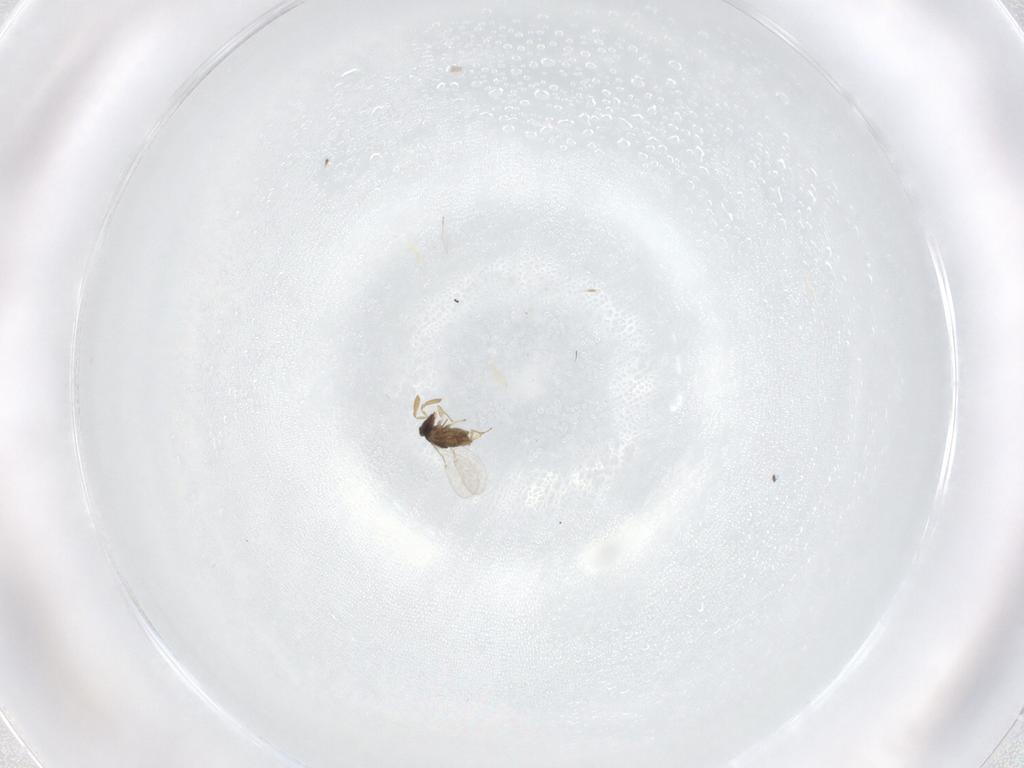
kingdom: Animalia
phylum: Arthropoda
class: Insecta
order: Hymenoptera
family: Encyrtidae
